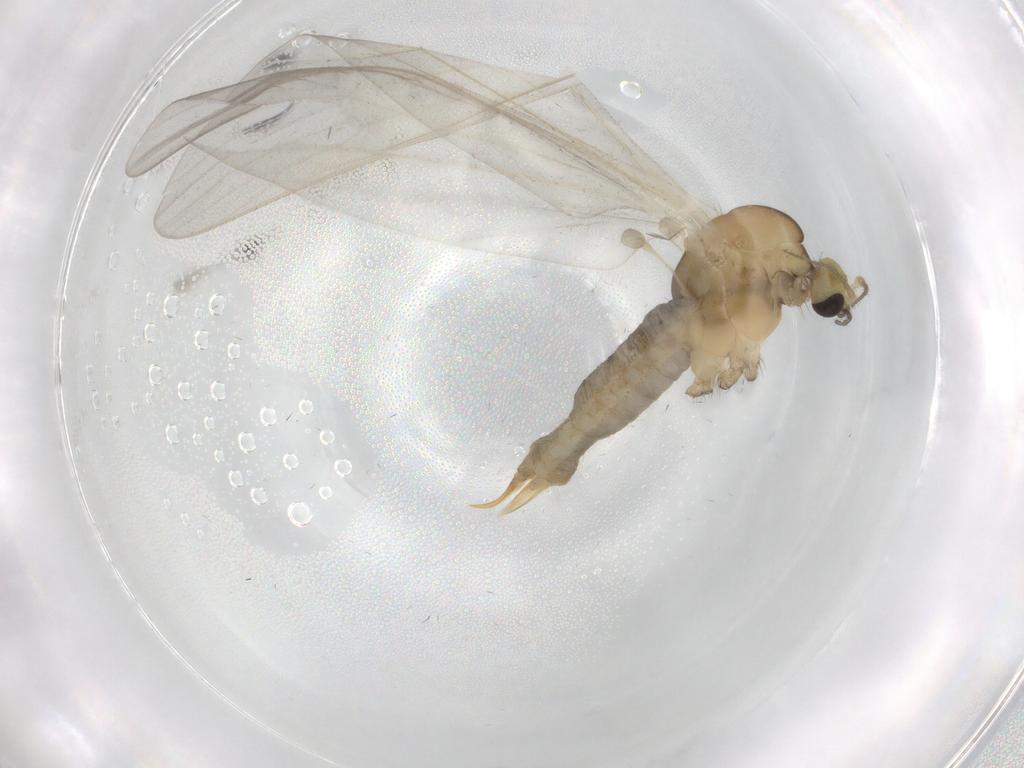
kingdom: Animalia
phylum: Arthropoda
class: Insecta
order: Diptera
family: Limoniidae
